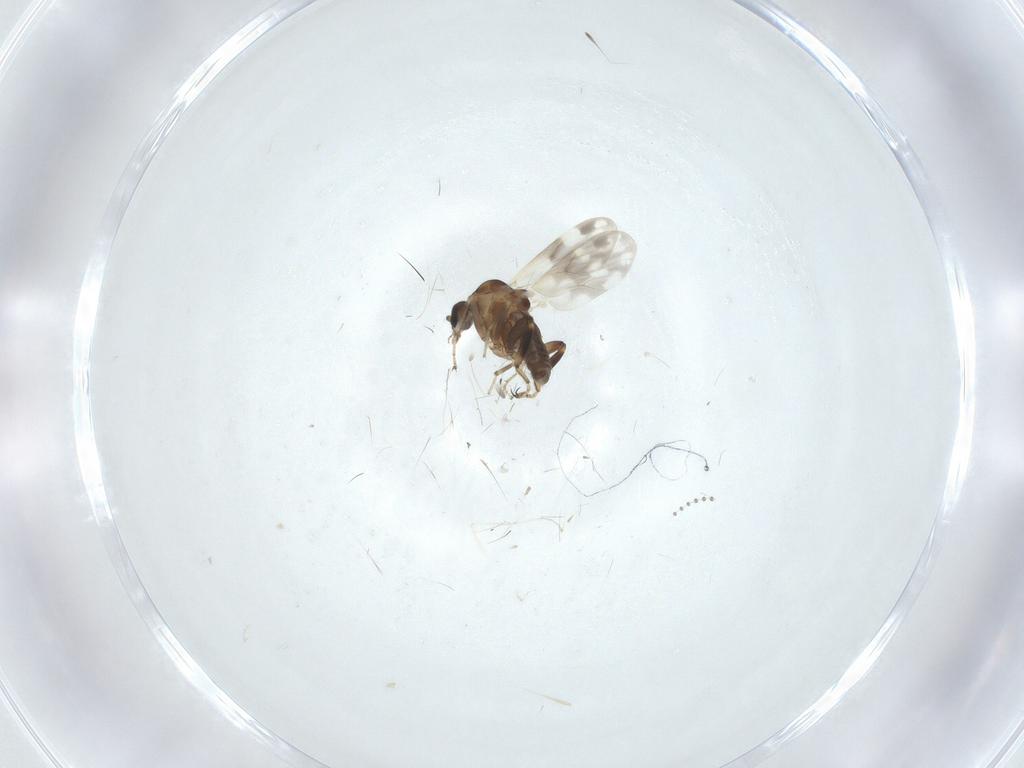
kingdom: Animalia
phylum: Arthropoda
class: Insecta
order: Diptera
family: Ceratopogonidae
